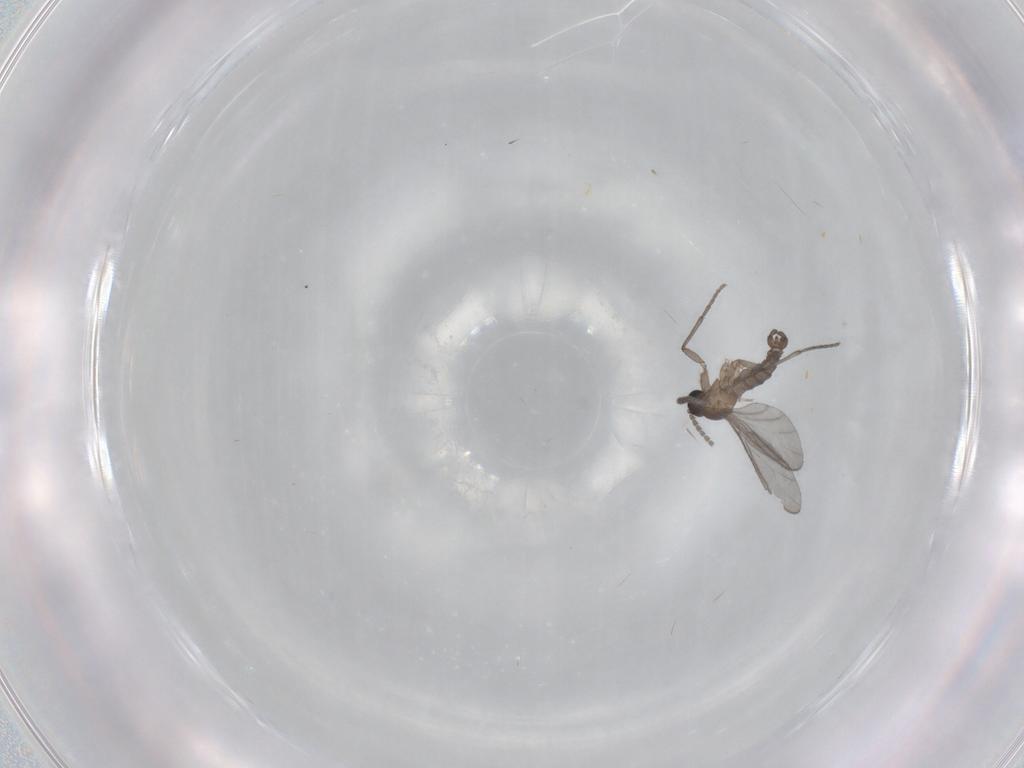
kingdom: Animalia
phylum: Arthropoda
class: Insecta
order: Diptera
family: Sciaridae
